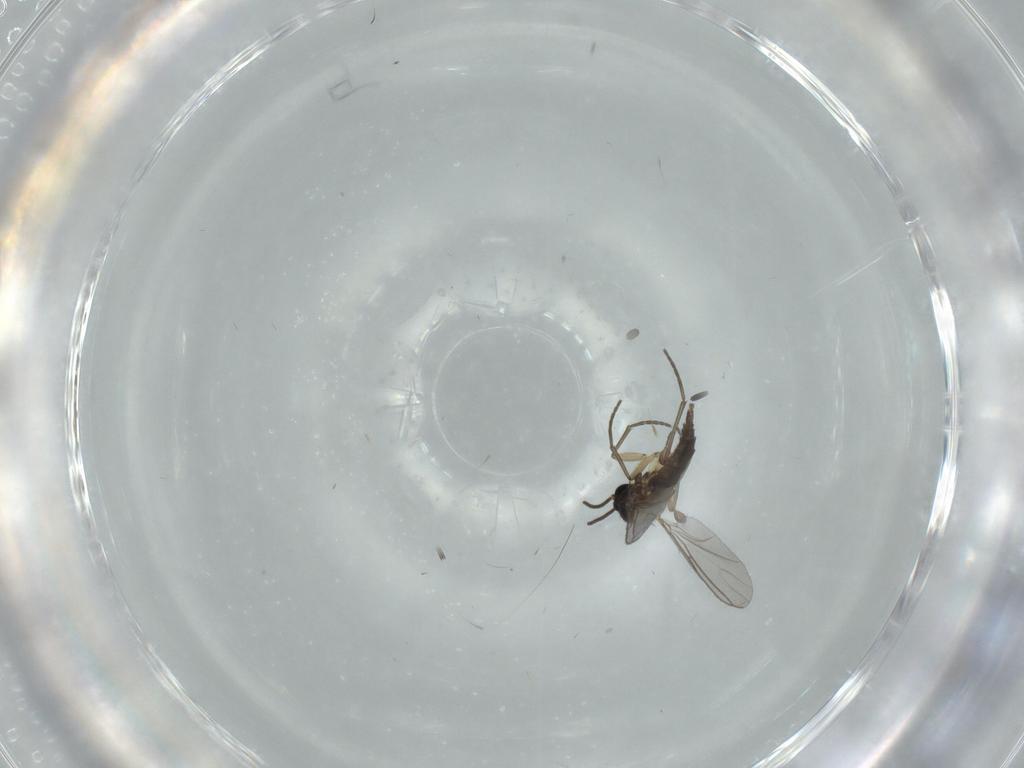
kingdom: Animalia
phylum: Arthropoda
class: Insecta
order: Diptera
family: Sciaridae
